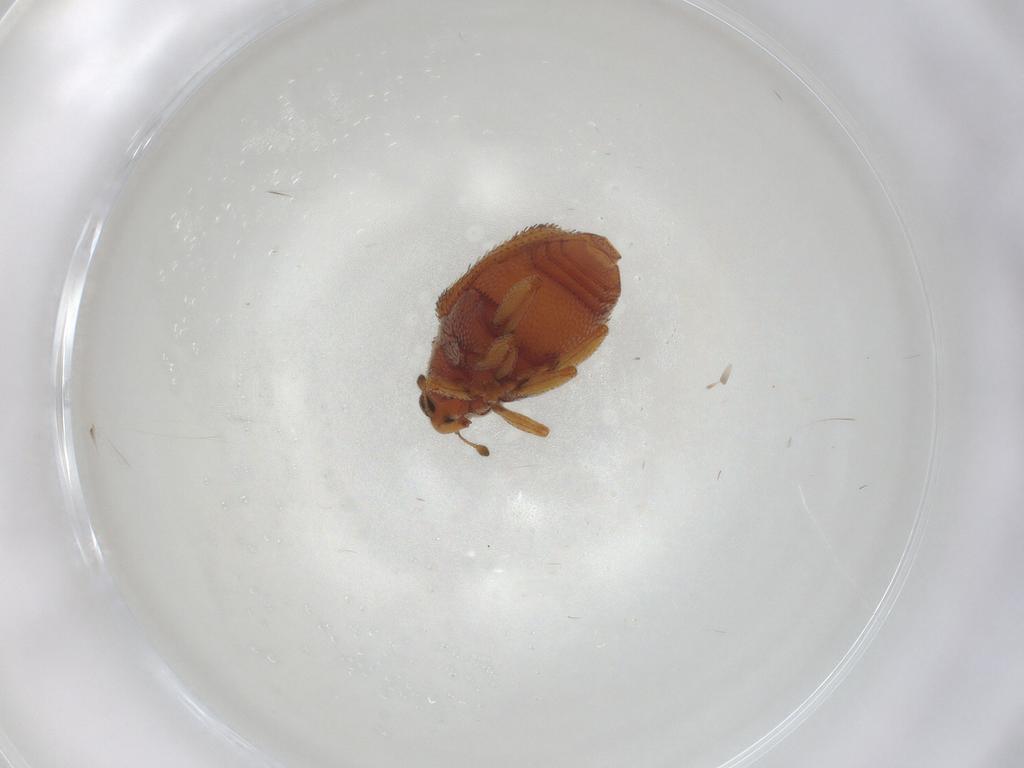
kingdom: Animalia
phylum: Arthropoda
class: Insecta
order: Coleoptera
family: Curculionidae
